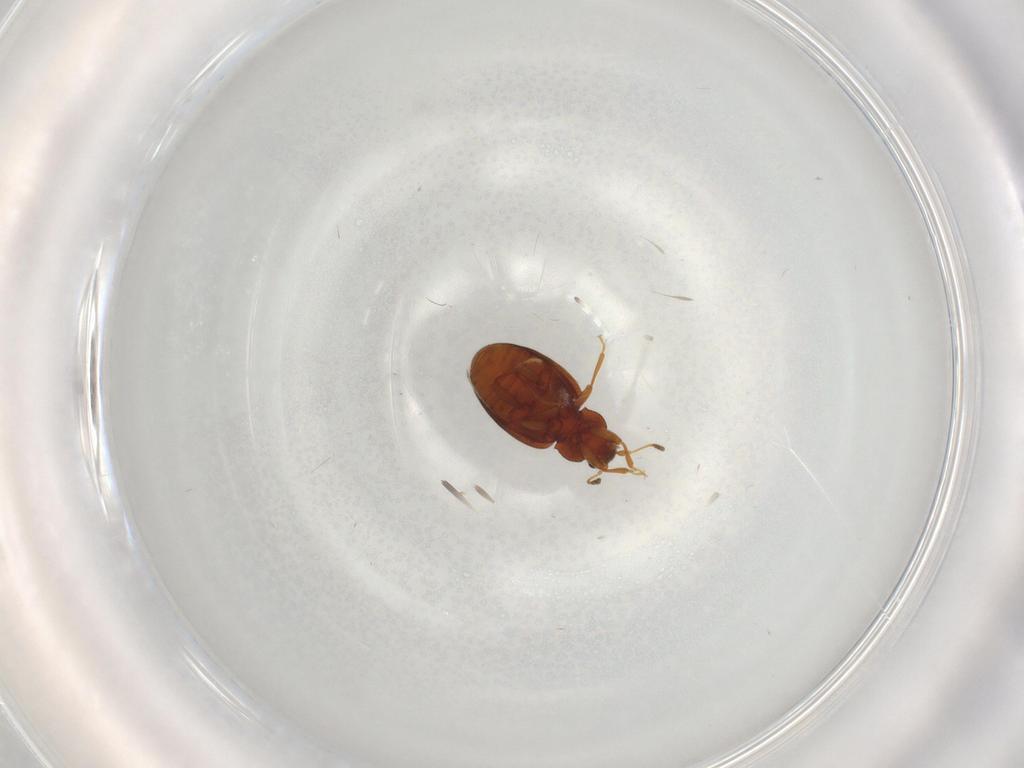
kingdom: Animalia
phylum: Arthropoda
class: Insecta
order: Coleoptera
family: Latridiidae
